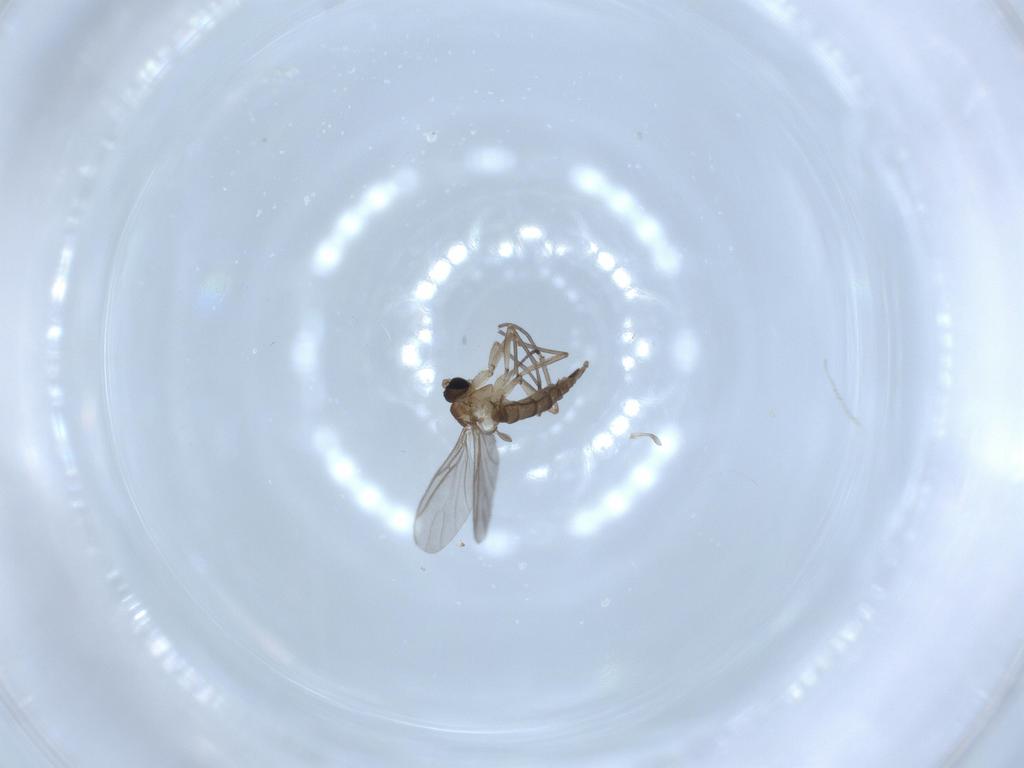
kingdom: Animalia
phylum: Arthropoda
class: Insecta
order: Diptera
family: Sciaridae
